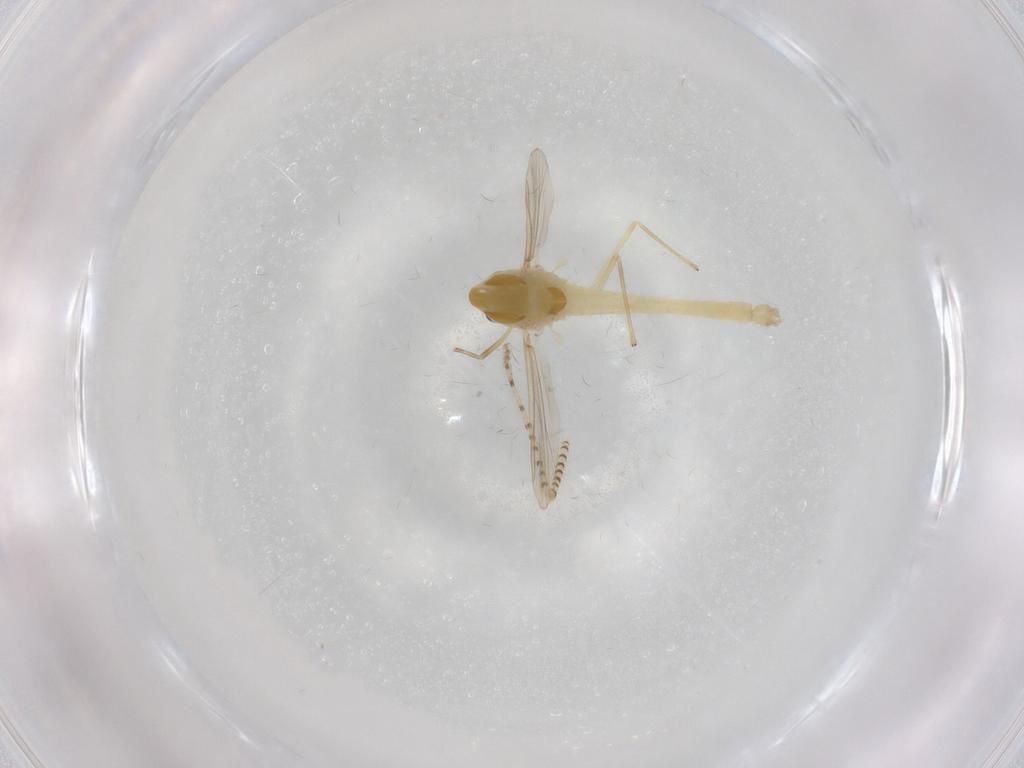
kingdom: Animalia
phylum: Arthropoda
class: Insecta
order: Diptera
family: Chironomidae
